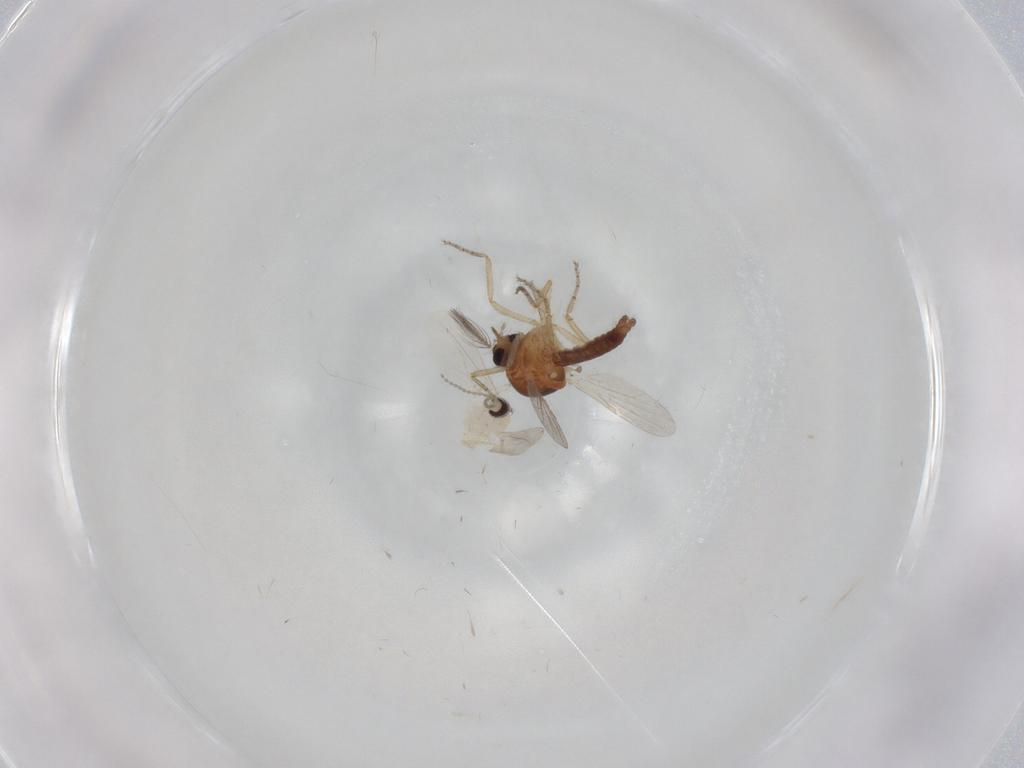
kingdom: Animalia
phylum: Arthropoda
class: Insecta
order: Diptera
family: Ceratopogonidae
